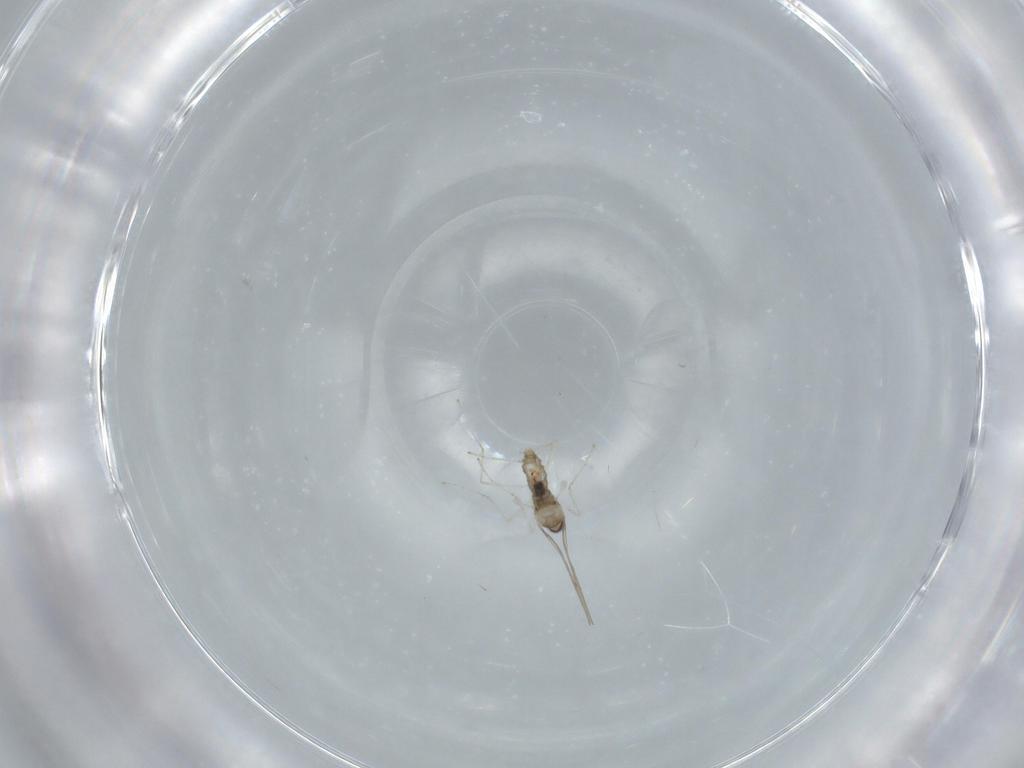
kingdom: Animalia
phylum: Arthropoda
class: Insecta
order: Diptera
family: Cecidomyiidae
